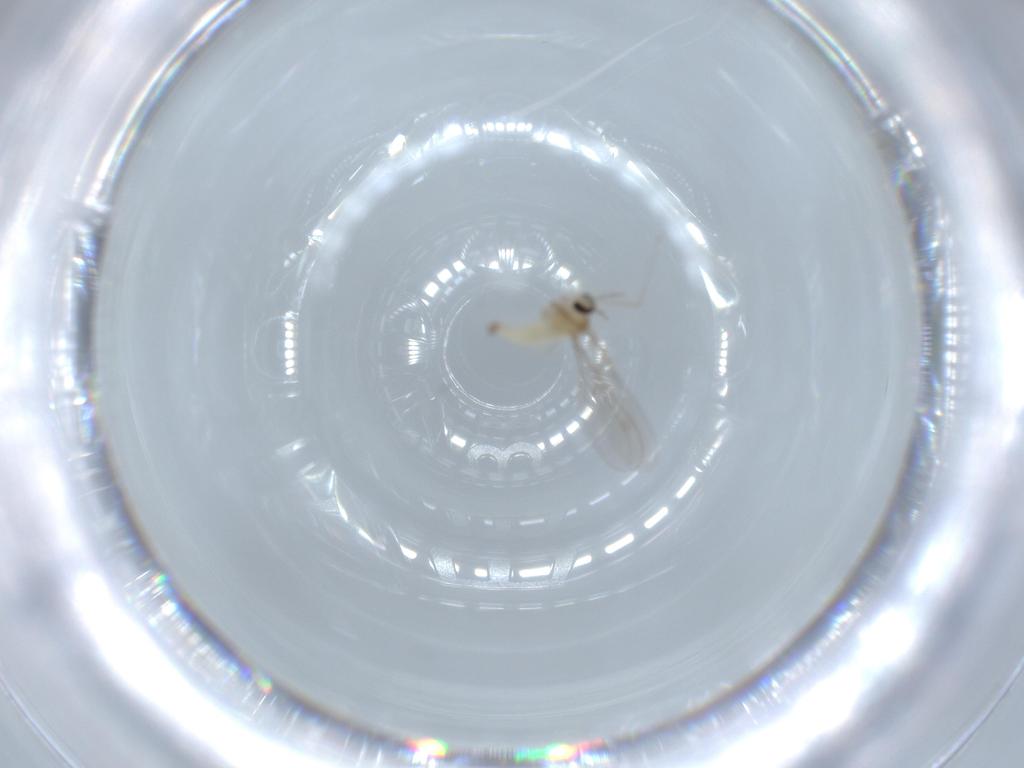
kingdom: Animalia
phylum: Arthropoda
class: Insecta
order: Diptera
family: Cecidomyiidae
